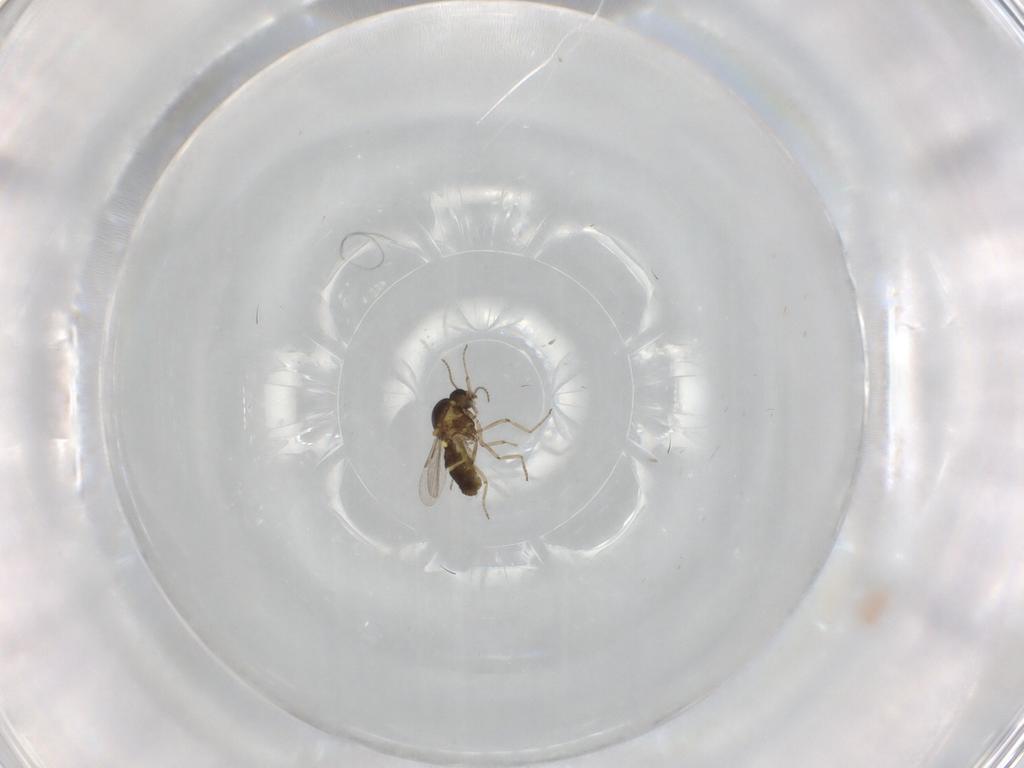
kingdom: Animalia
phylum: Arthropoda
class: Insecta
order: Diptera
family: Ceratopogonidae
